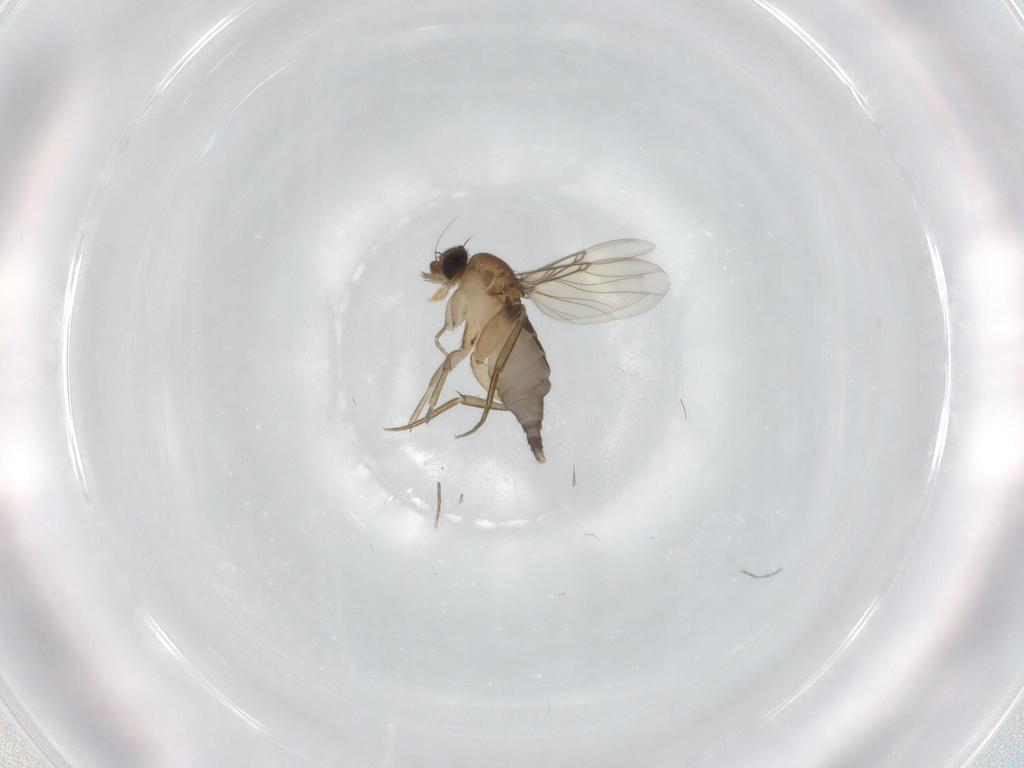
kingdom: Animalia
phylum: Arthropoda
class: Insecta
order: Diptera
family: Phoridae
